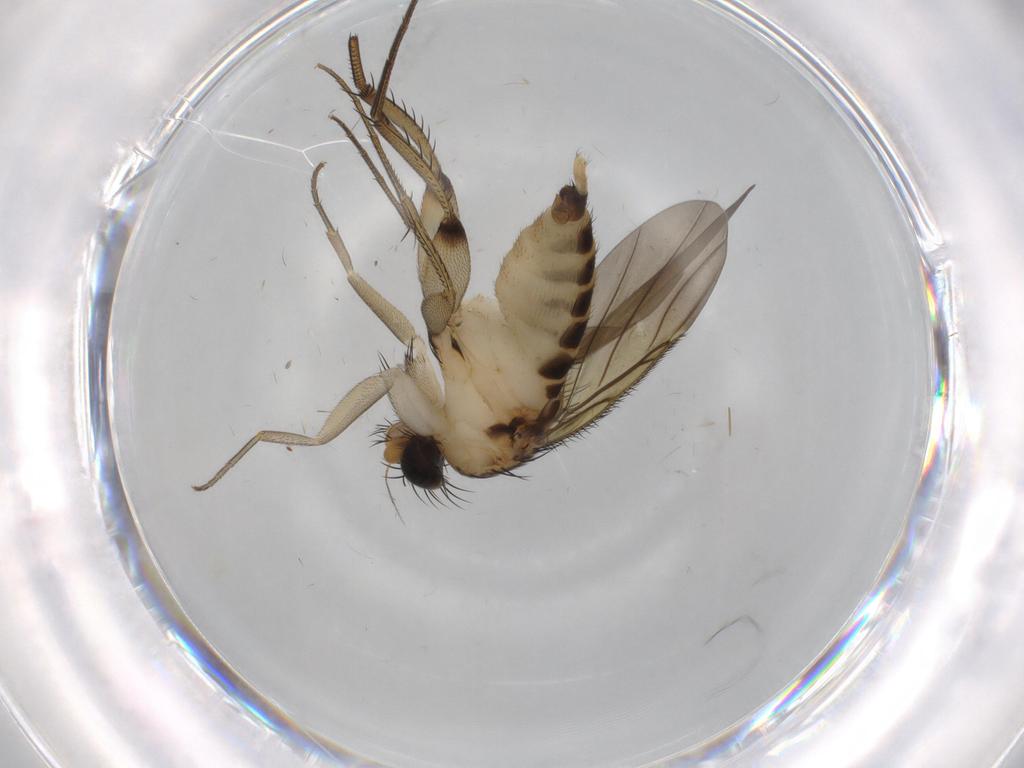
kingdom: Animalia
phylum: Arthropoda
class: Insecta
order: Diptera
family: Phoridae
